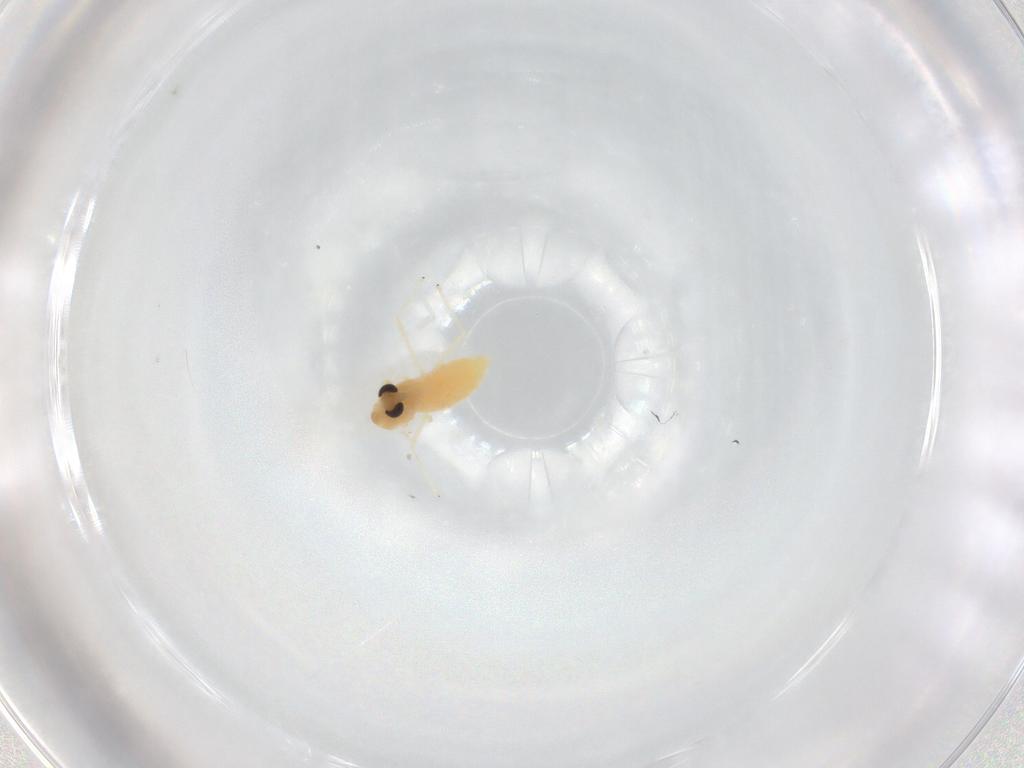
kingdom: Animalia
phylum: Arthropoda
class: Insecta
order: Diptera
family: Chironomidae
